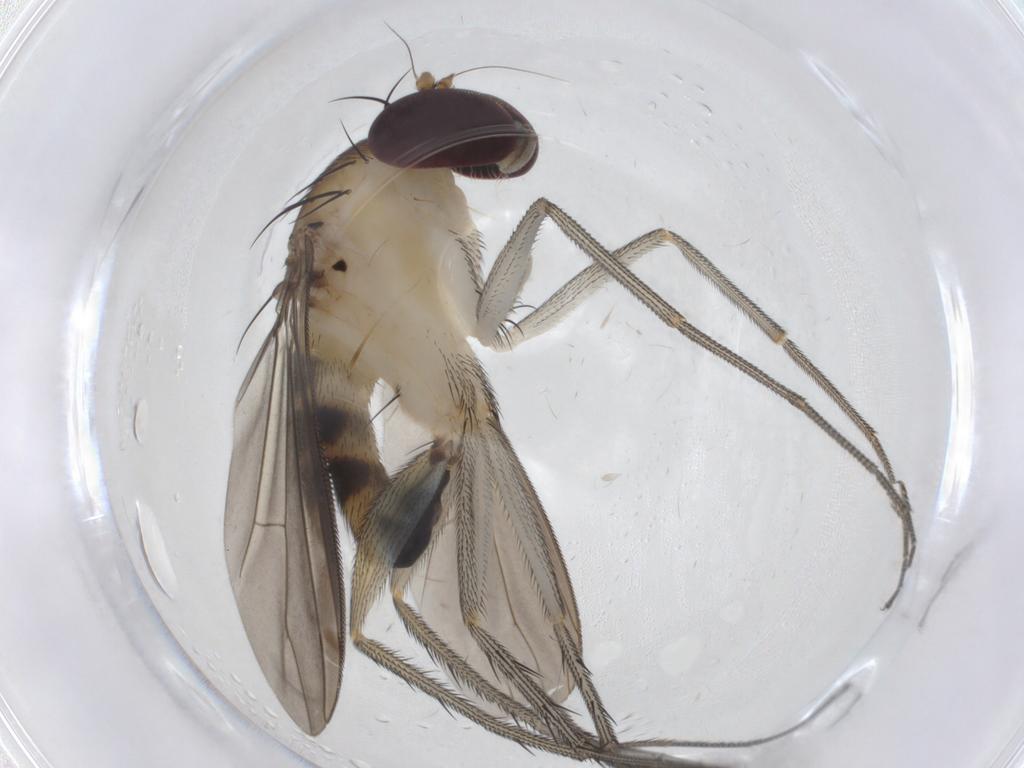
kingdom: Animalia
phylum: Arthropoda
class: Insecta
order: Diptera
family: Dolichopodidae
